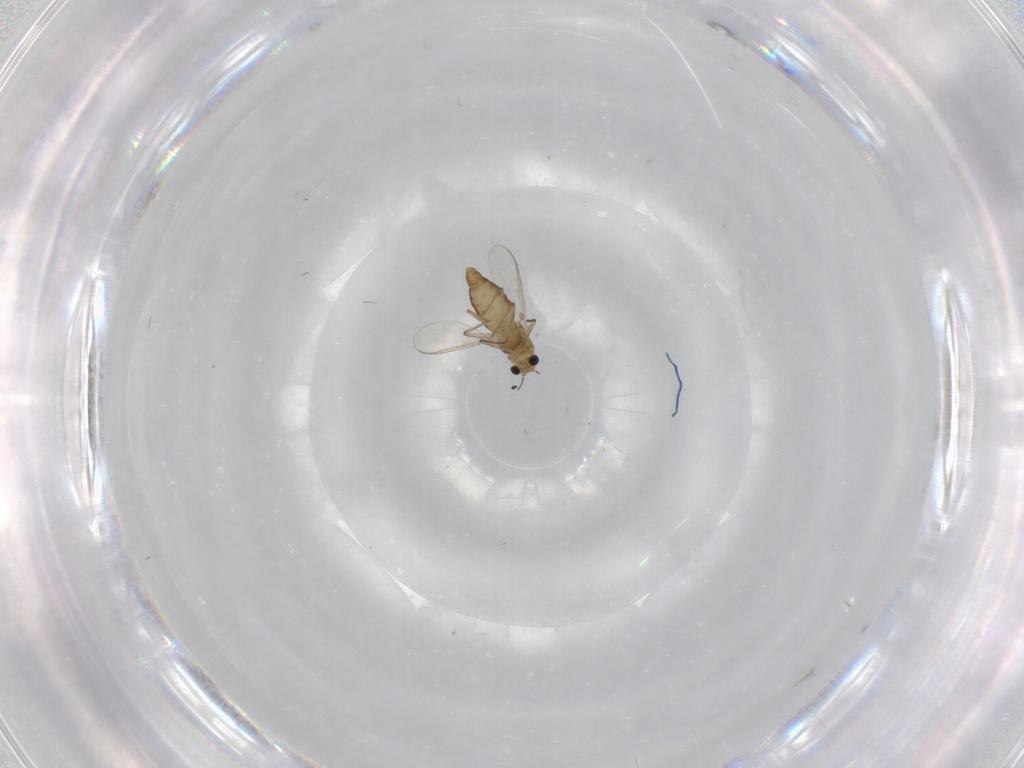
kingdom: Animalia
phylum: Arthropoda
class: Insecta
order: Diptera
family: Chironomidae
